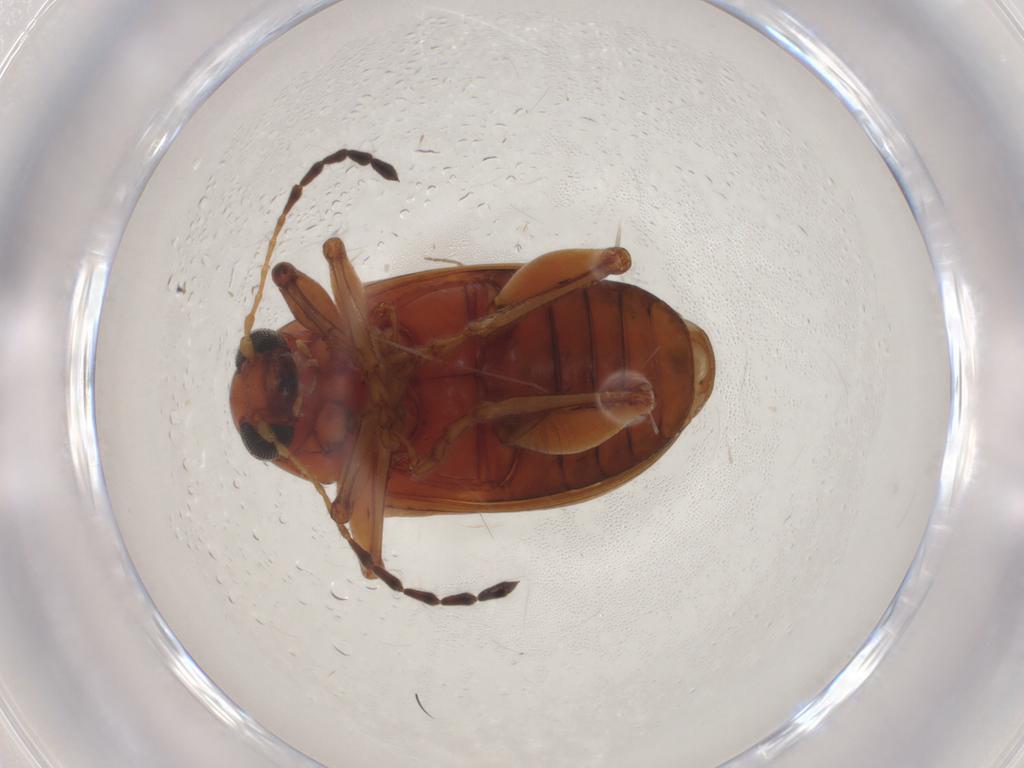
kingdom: Animalia
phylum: Arthropoda
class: Insecta
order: Coleoptera
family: Chrysomelidae
